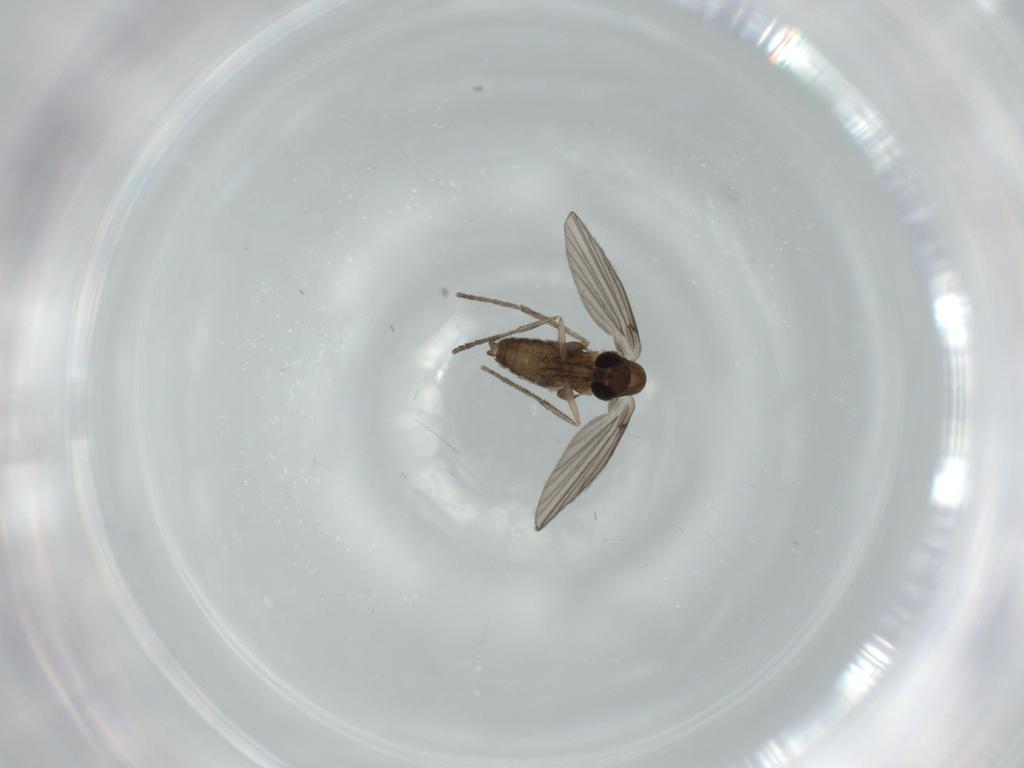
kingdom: Animalia
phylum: Arthropoda
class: Insecta
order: Diptera
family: Psychodidae
